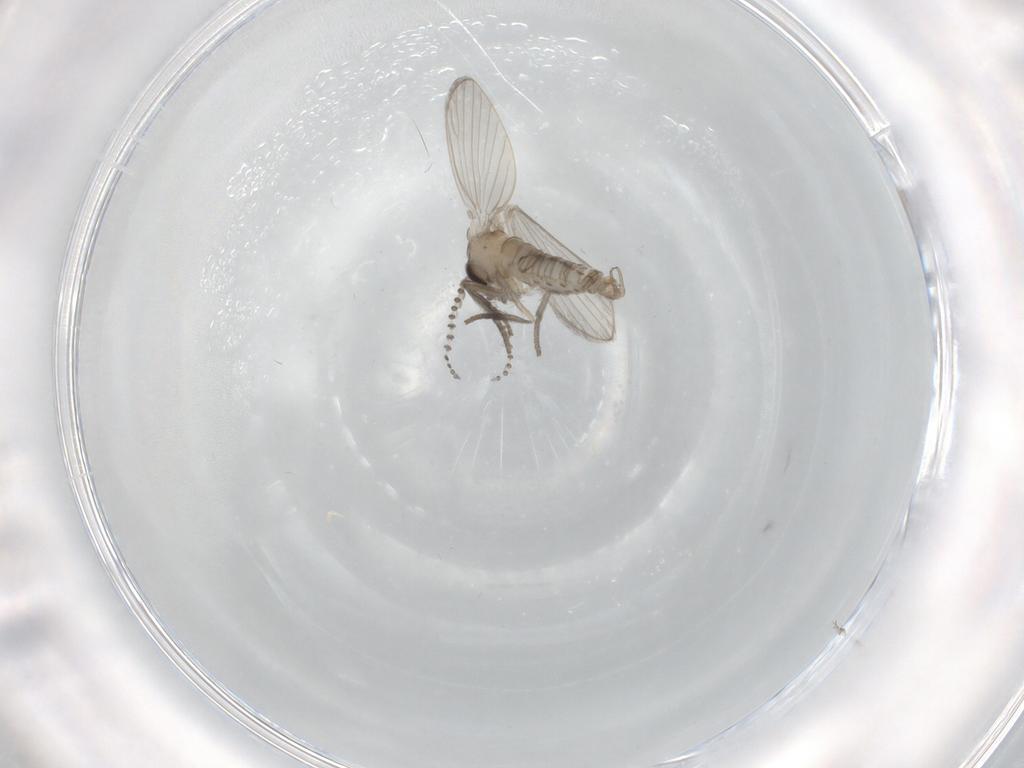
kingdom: Animalia
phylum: Arthropoda
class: Insecta
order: Diptera
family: Psychodidae
